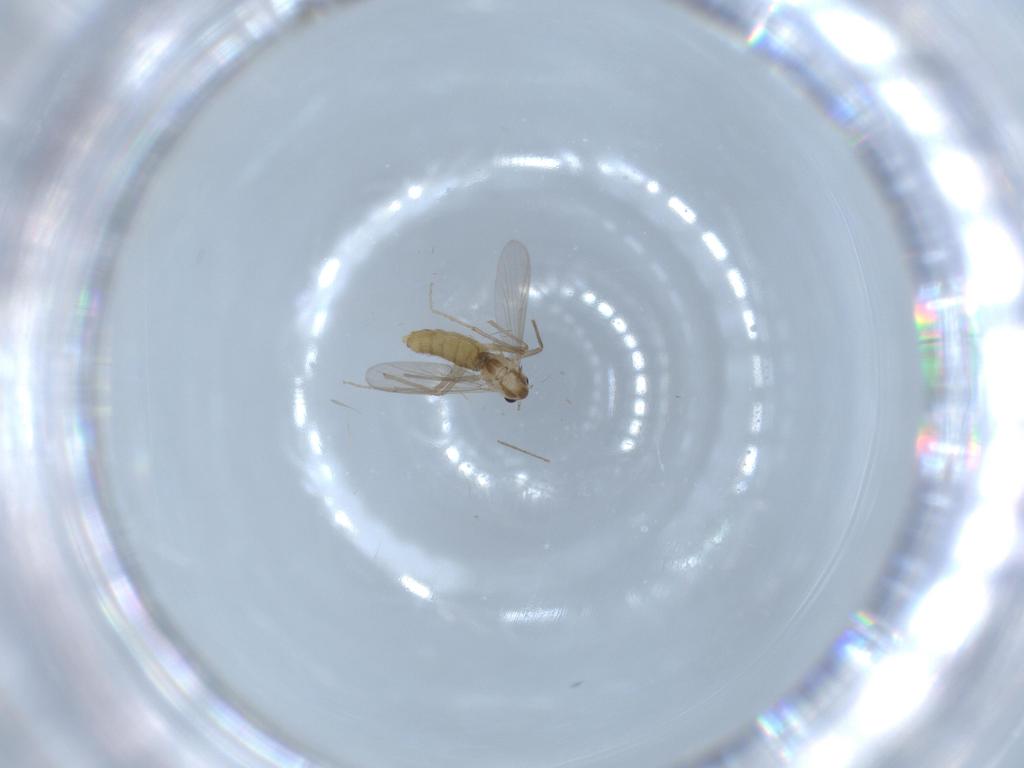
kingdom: Animalia
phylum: Arthropoda
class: Insecta
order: Diptera
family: Chironomidae
